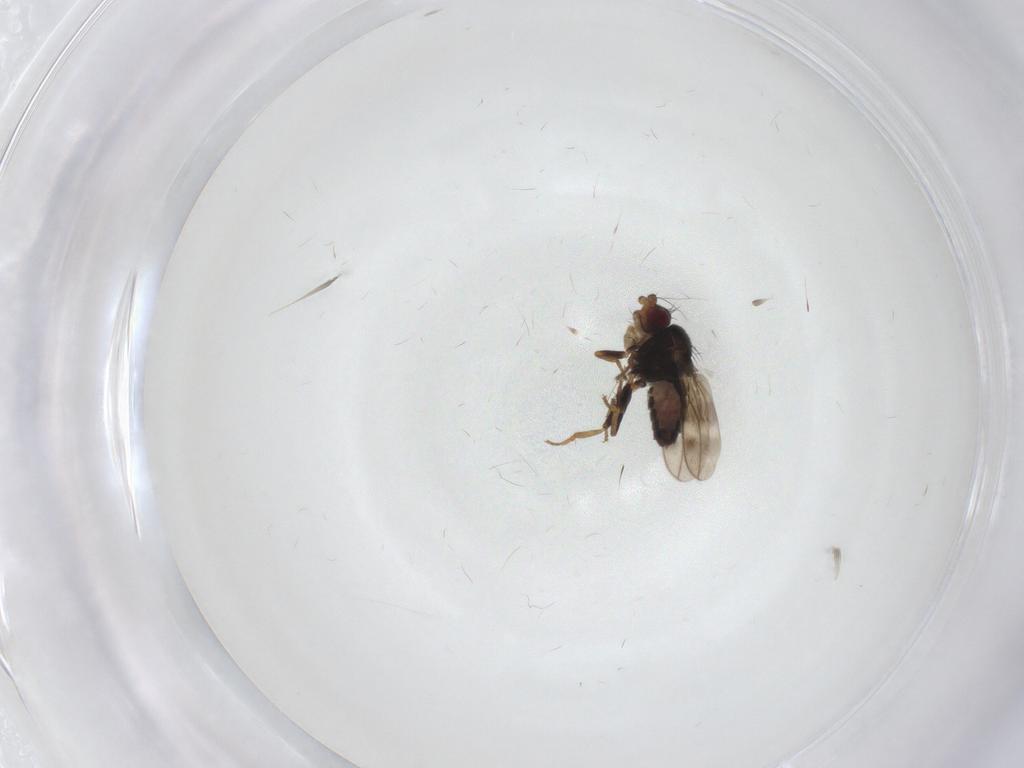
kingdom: Animalia
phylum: Arthropoda
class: Insecta
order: Diptera
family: Sphaeroceridae
